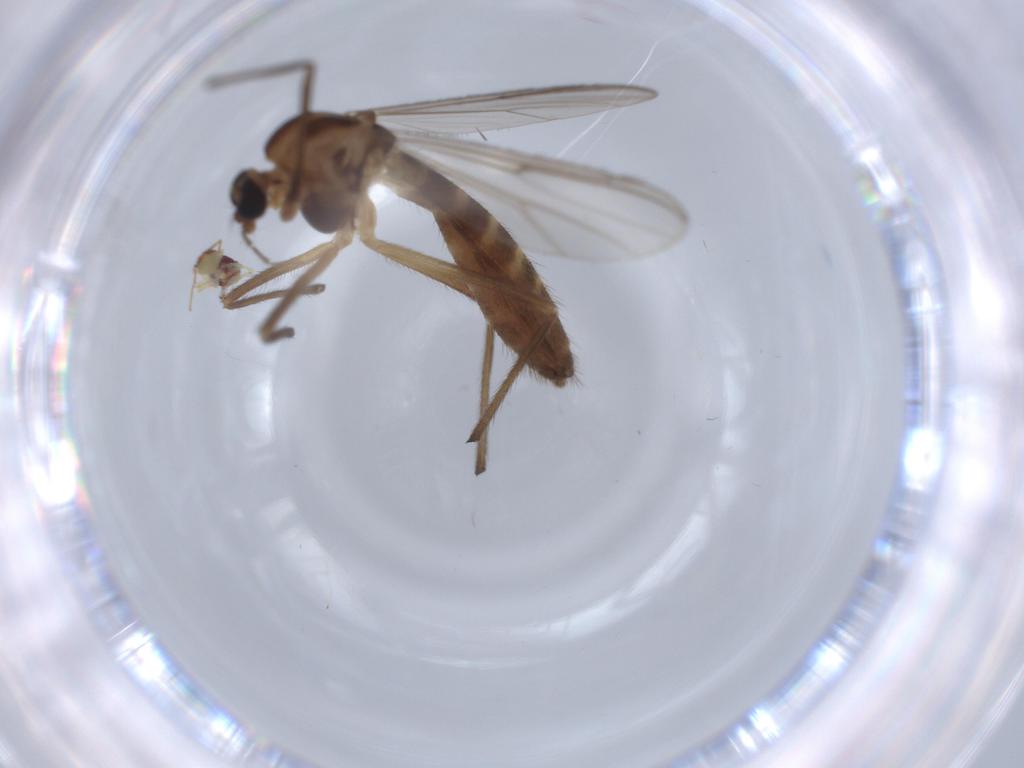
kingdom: Animalia
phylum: Arthropoda
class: Insecta
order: Diptera
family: Chironomidae
